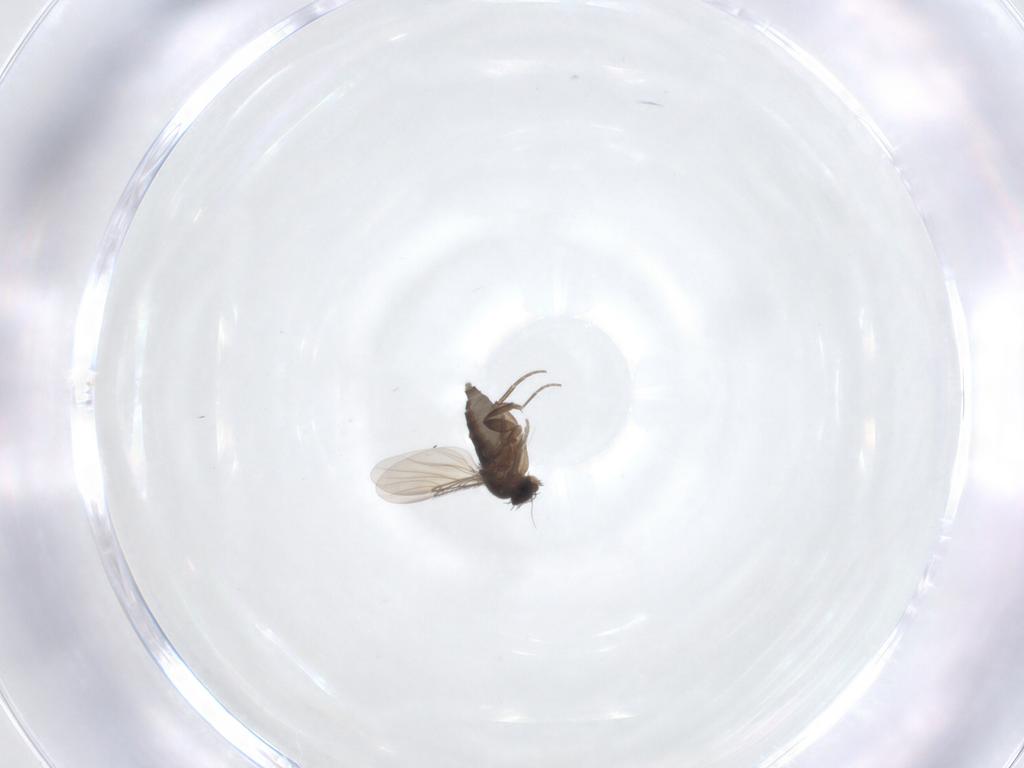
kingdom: Animalia
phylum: Arthropoda
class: Insecta
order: Diptera
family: Phoridae
